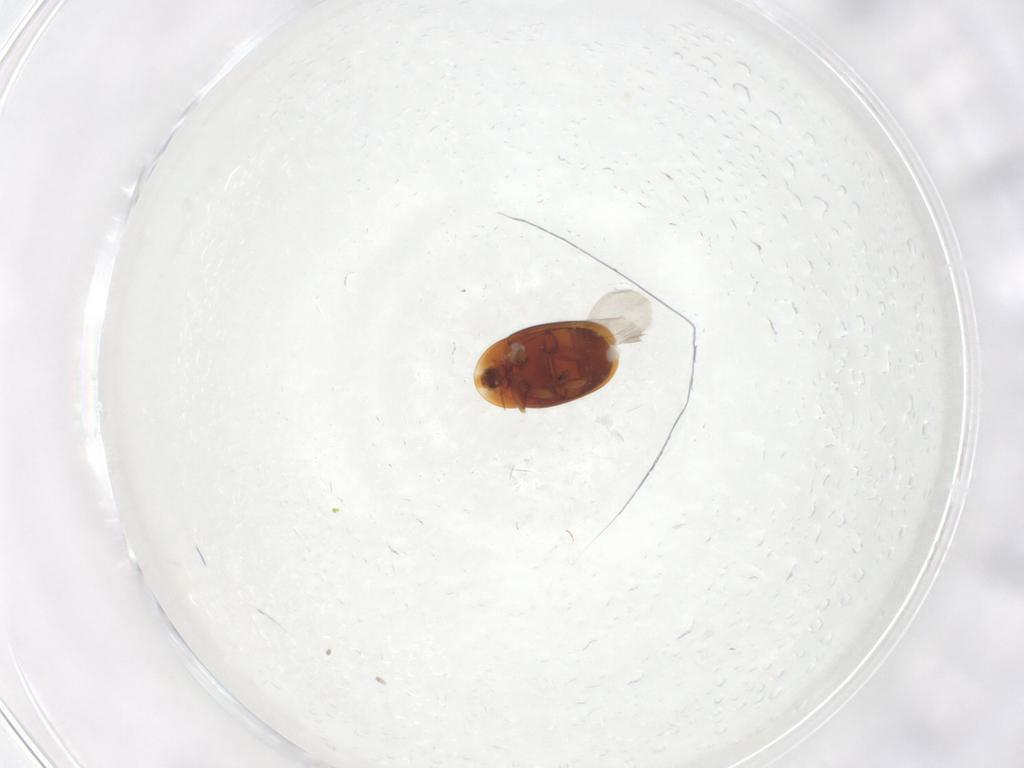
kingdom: Animalia
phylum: Arthropoda
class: Insecta
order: Coleoptera
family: Corylophidae
